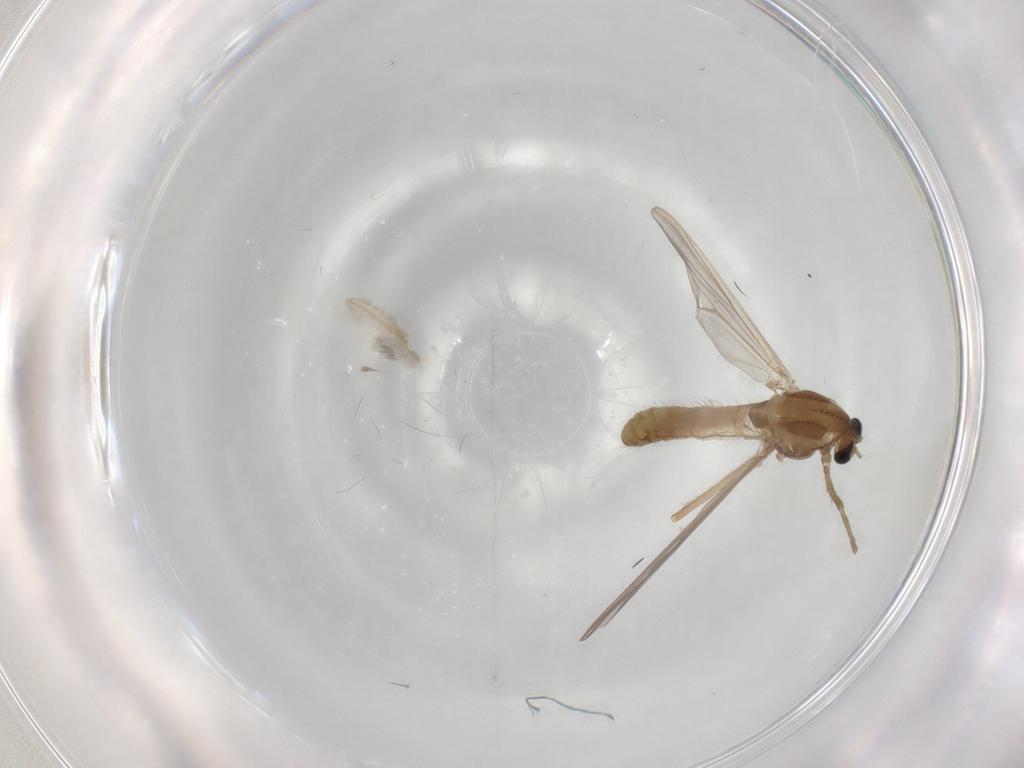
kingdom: Animalia
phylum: Arthropoda
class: Insecta
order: Diptera
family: Chironomidae
